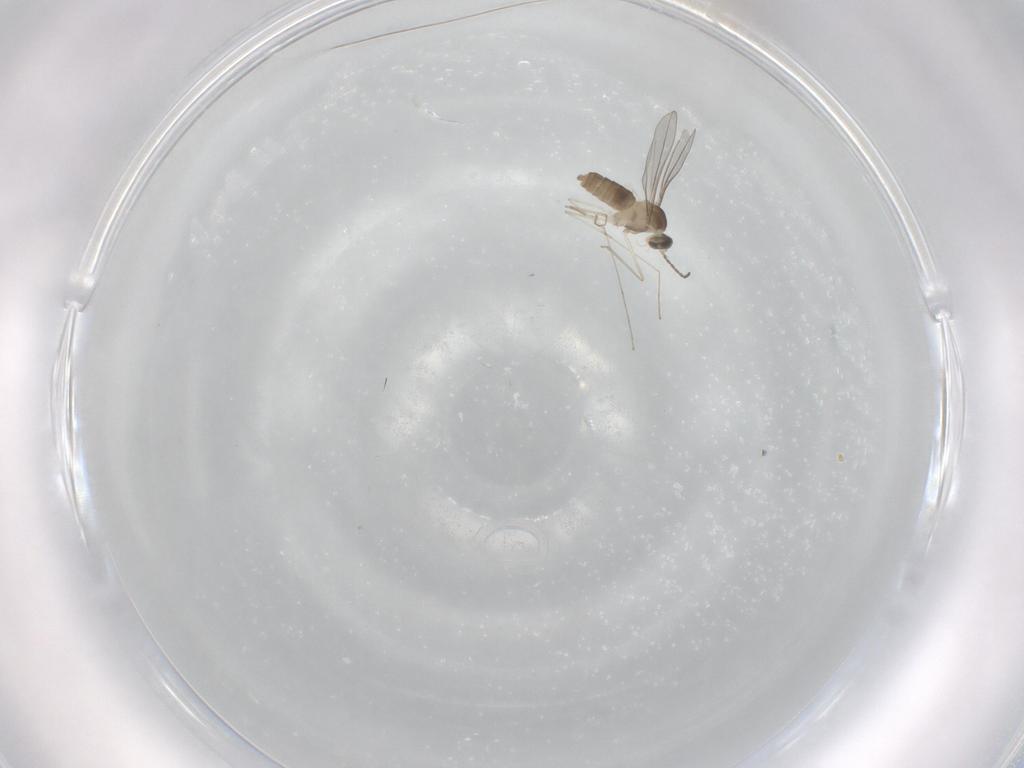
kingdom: Animalia
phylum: Arthropoda
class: Insecta
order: Diptera
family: Cecidomyiidae
